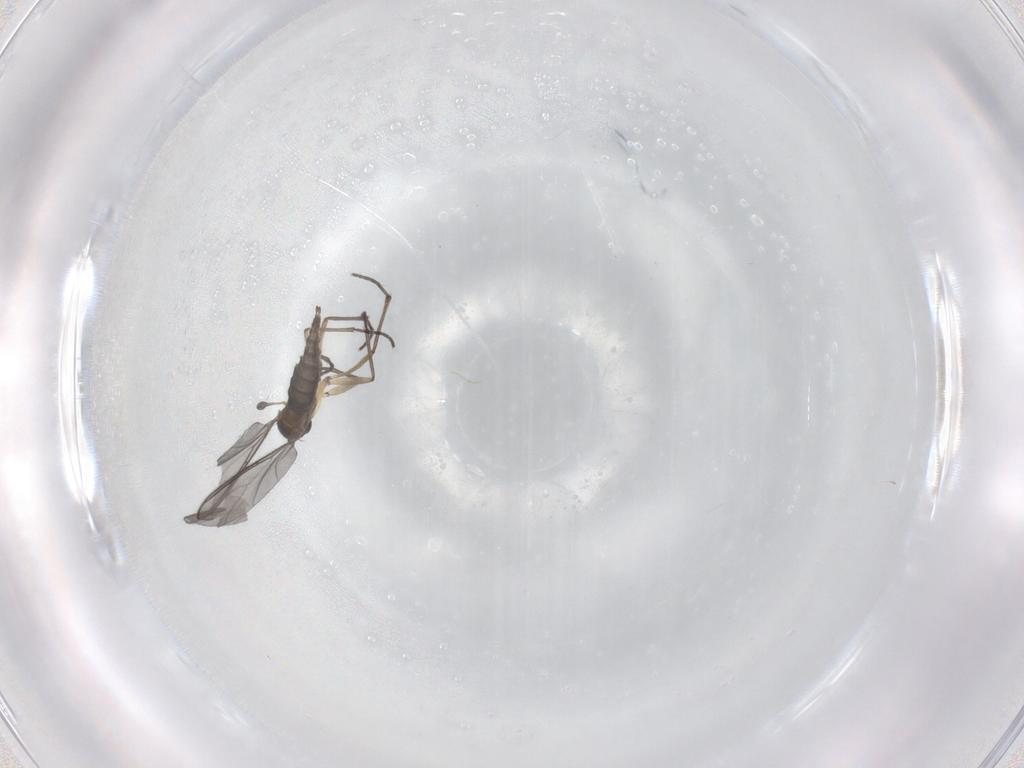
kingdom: Animalia
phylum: Arthropoda
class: Insecta
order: Diptera
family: Sciaridae
